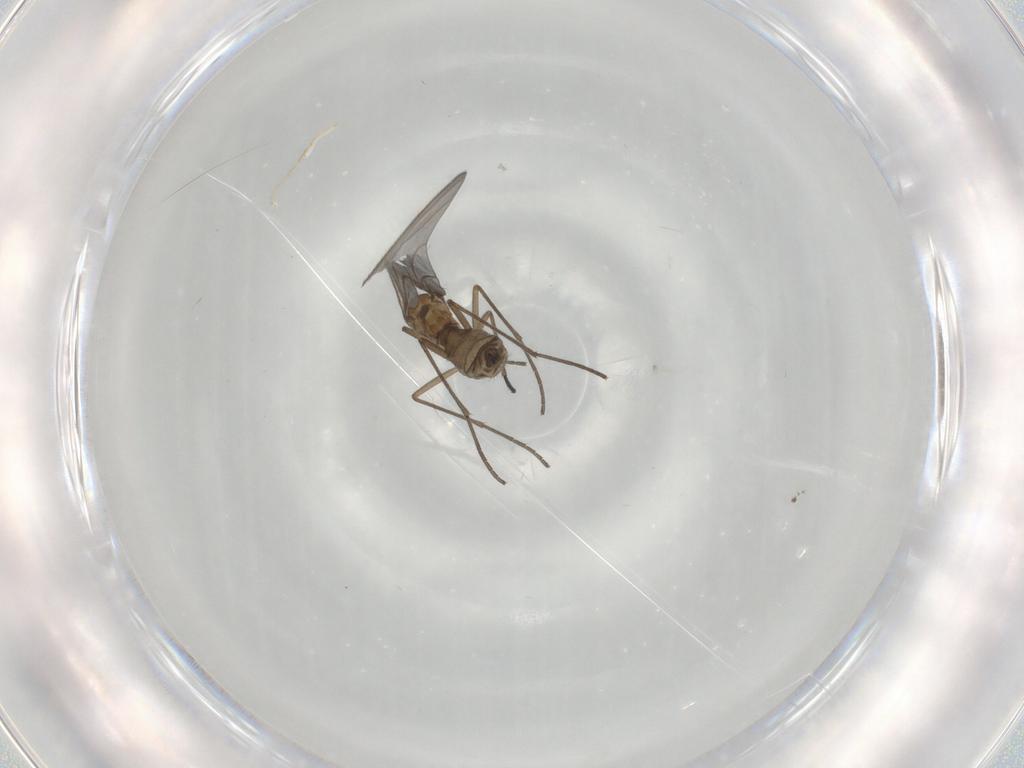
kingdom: Animalia
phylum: Arthropoda
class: Insecta
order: Diptera
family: Sciaridae
